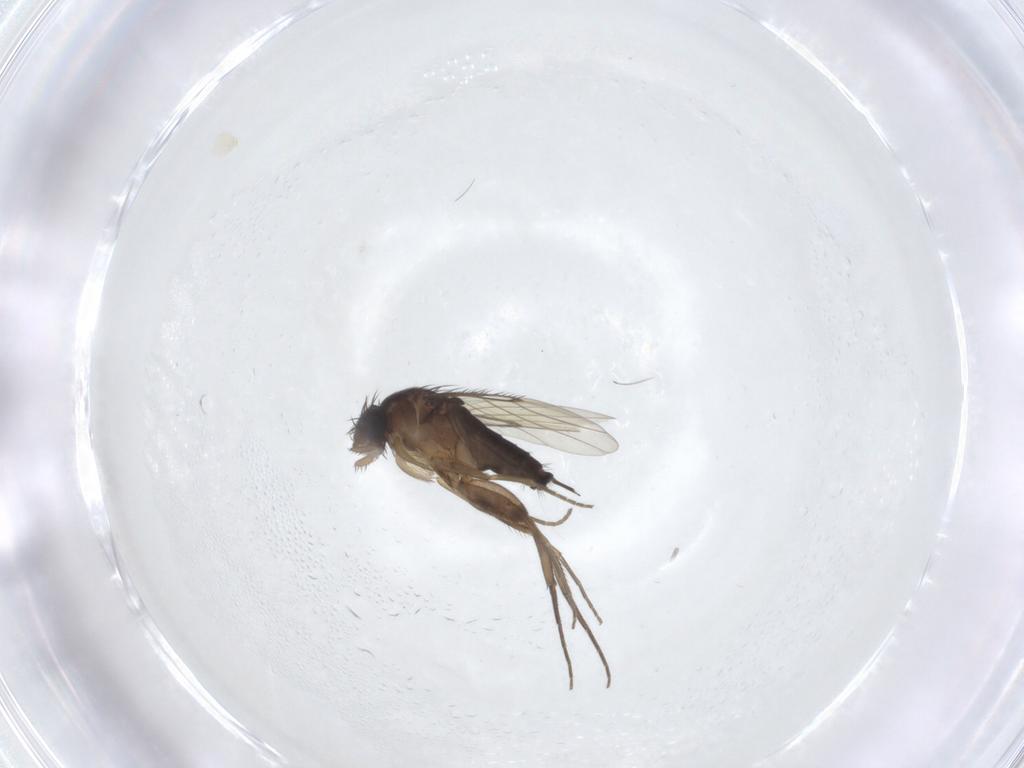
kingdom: Animalia
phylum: Arthropoda
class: Insecta
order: Diptera
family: Phoridae
